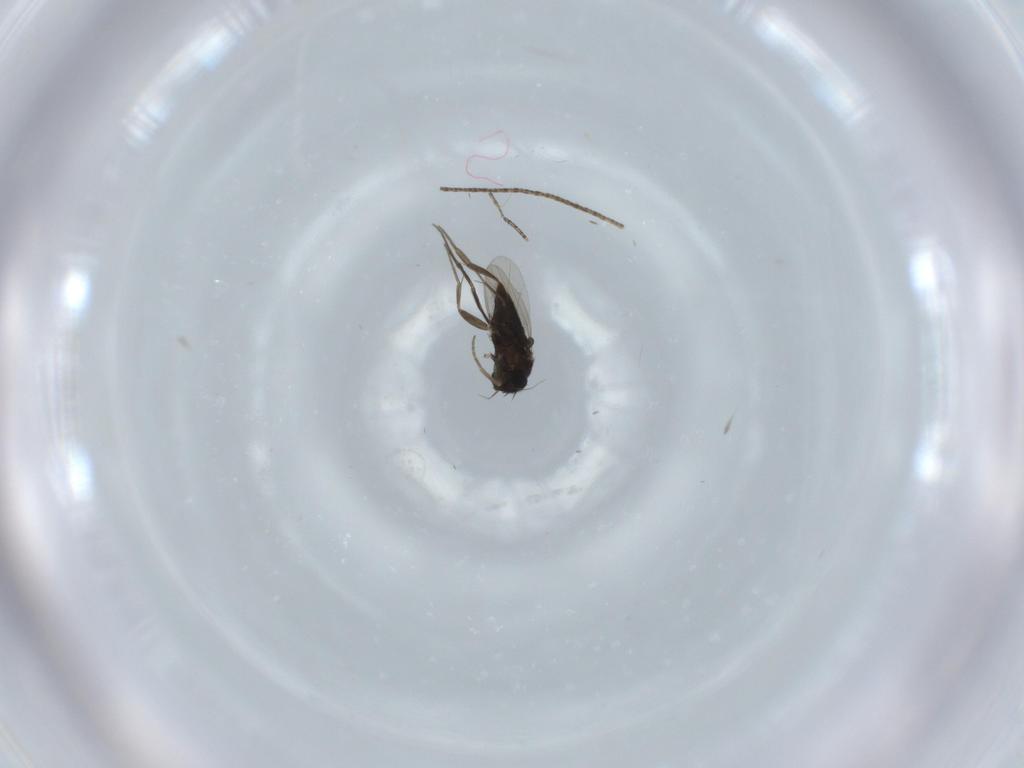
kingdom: Animalia
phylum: Arthropoda
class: Insecta
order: Diptera
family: Phoridae
